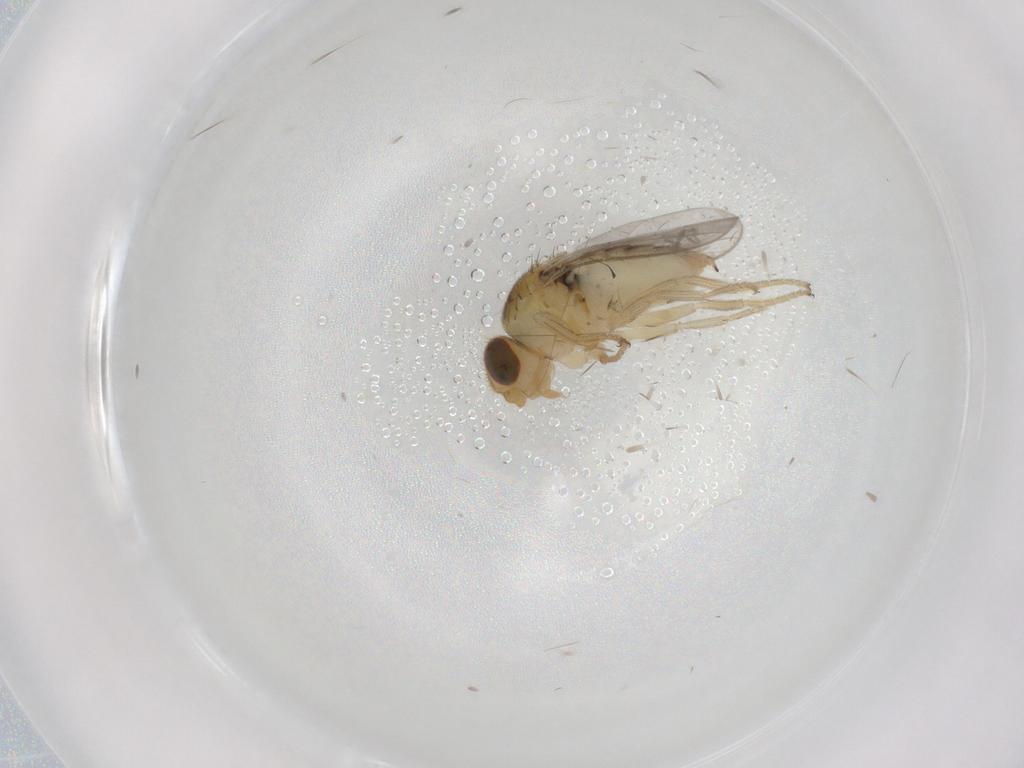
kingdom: Animalia
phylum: Arthropoda
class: Insecta
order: Diptera
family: Chloropidae
